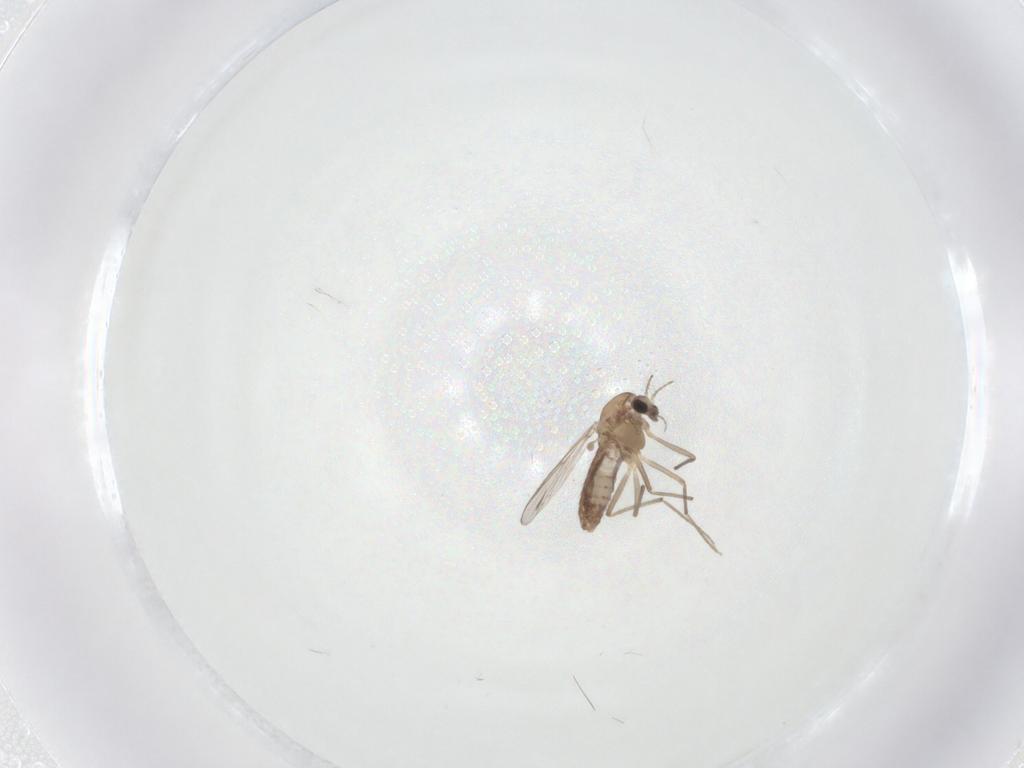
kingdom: Animalia
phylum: Arthropoda
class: Insecta
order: Diptera
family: Chironomidae
